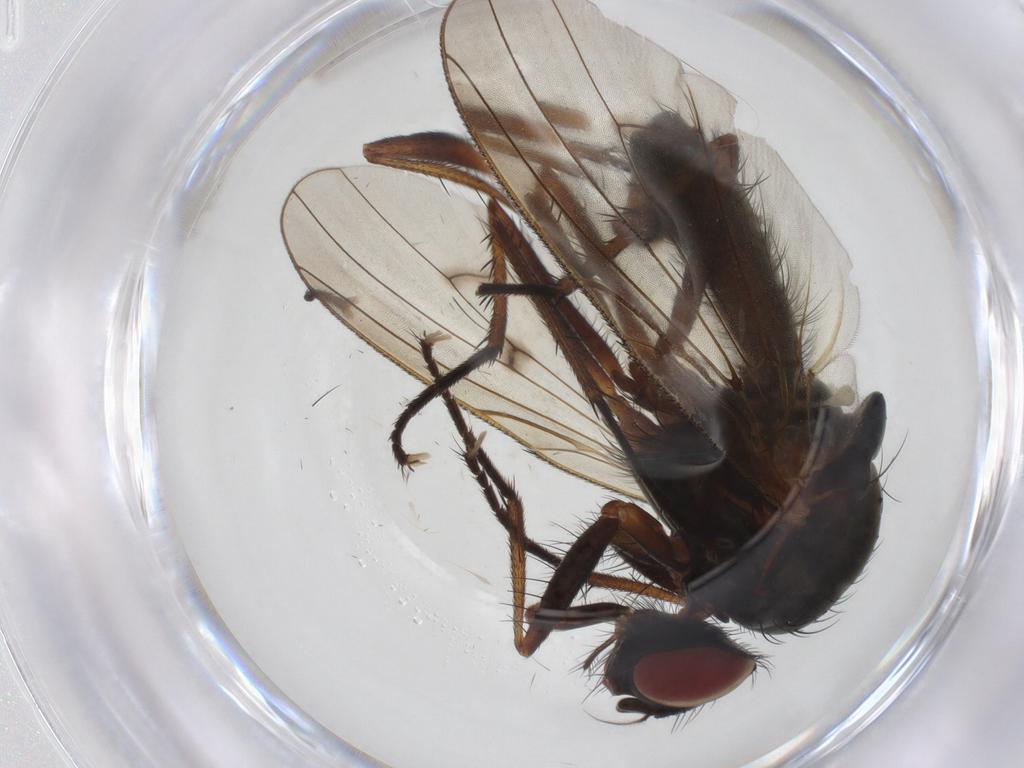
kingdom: Animalia
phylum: Arthropoda
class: Insecta
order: Diptera
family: Anthomyiidae
